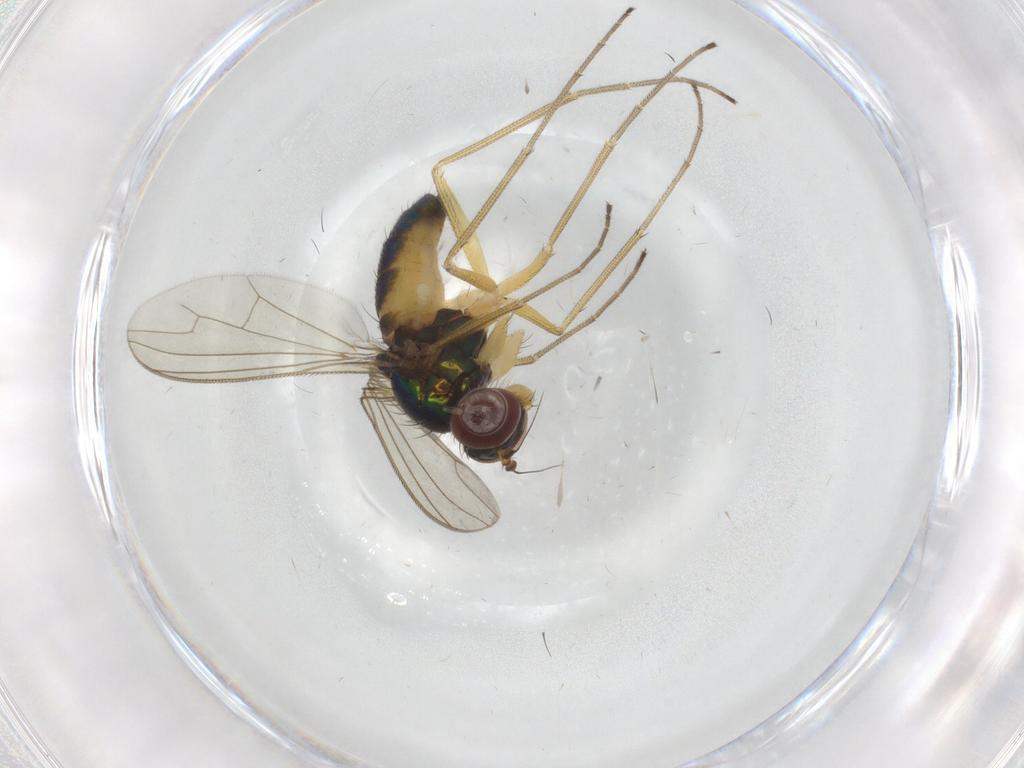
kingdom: Animalia
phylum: Arthropoda
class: Insecta
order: Diptera
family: Dolichopodidae
